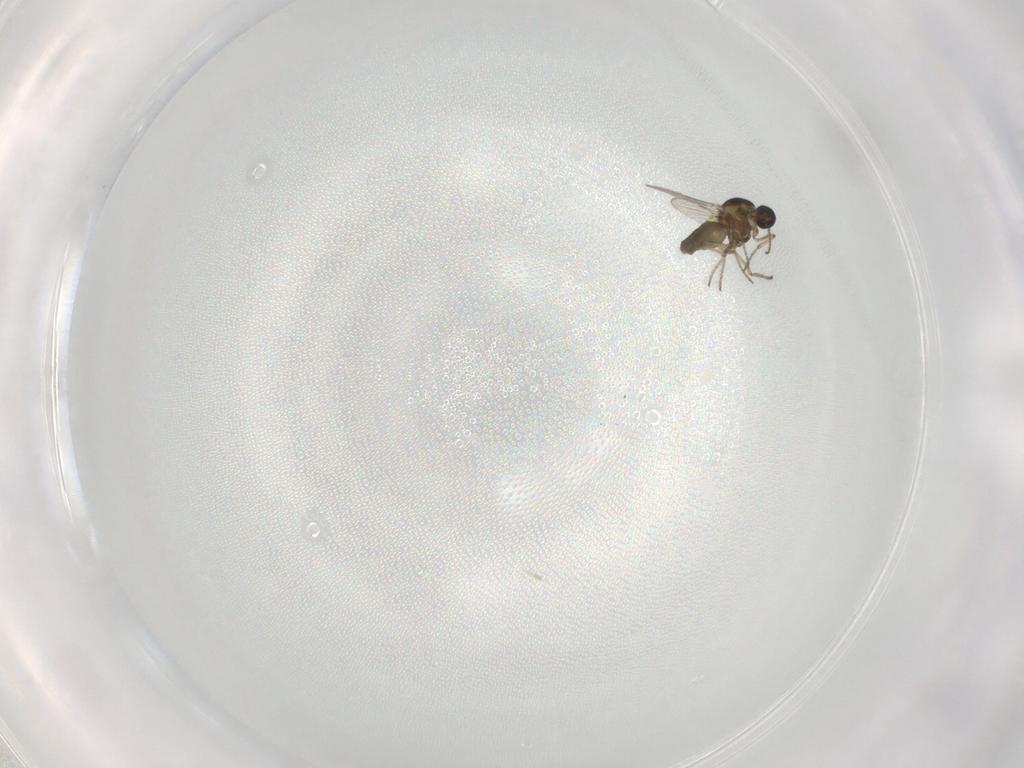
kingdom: Animalia
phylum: Arthropoda
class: Insecta
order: Diptera
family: Ceratopogonidae
